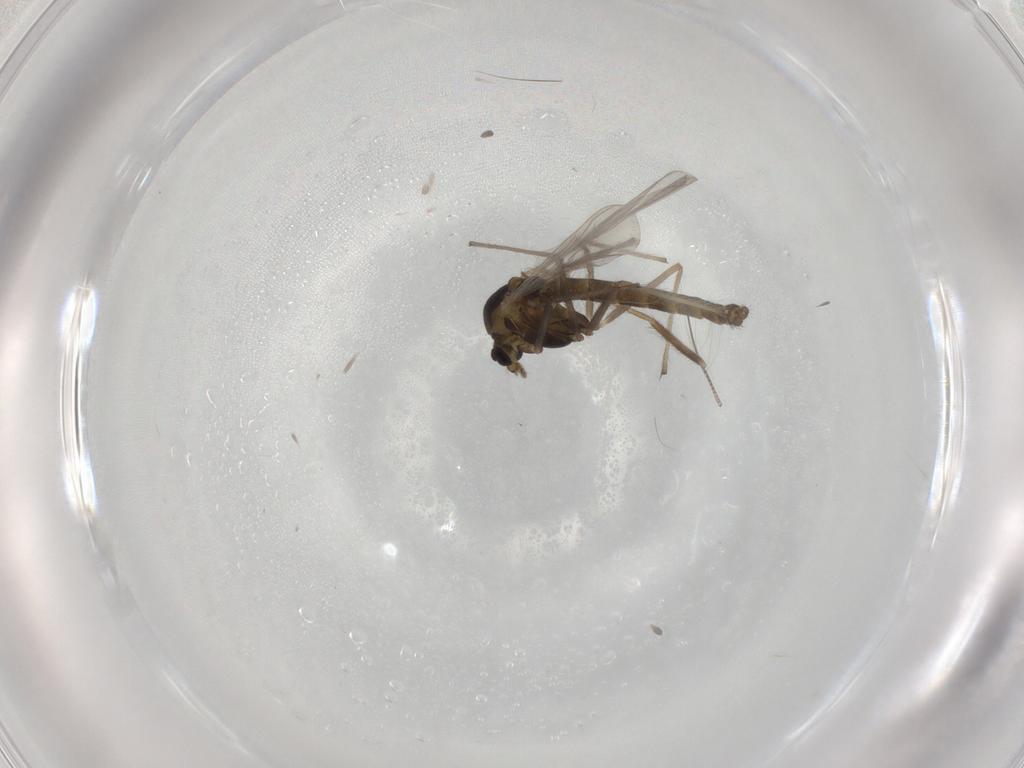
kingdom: Animalia
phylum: Arthropoda
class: Insecta
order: Diptera
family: Chironomidae
